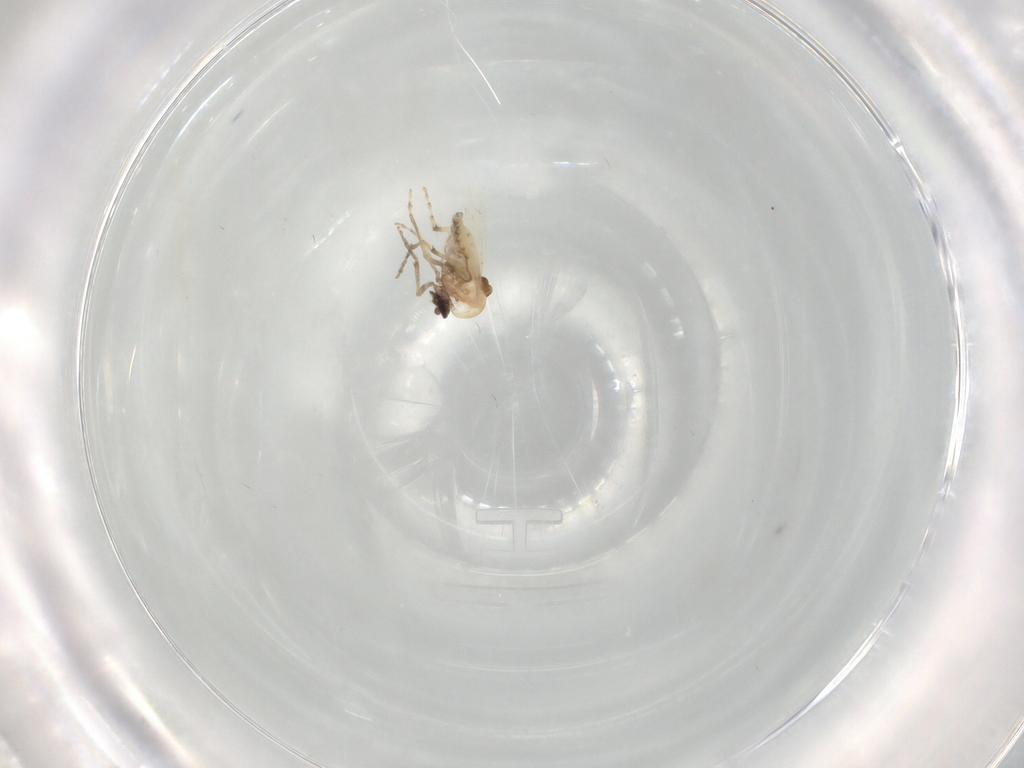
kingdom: Animalia
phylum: Arthropoda
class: Insecta
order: Diptera
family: Ceratopogonidae
